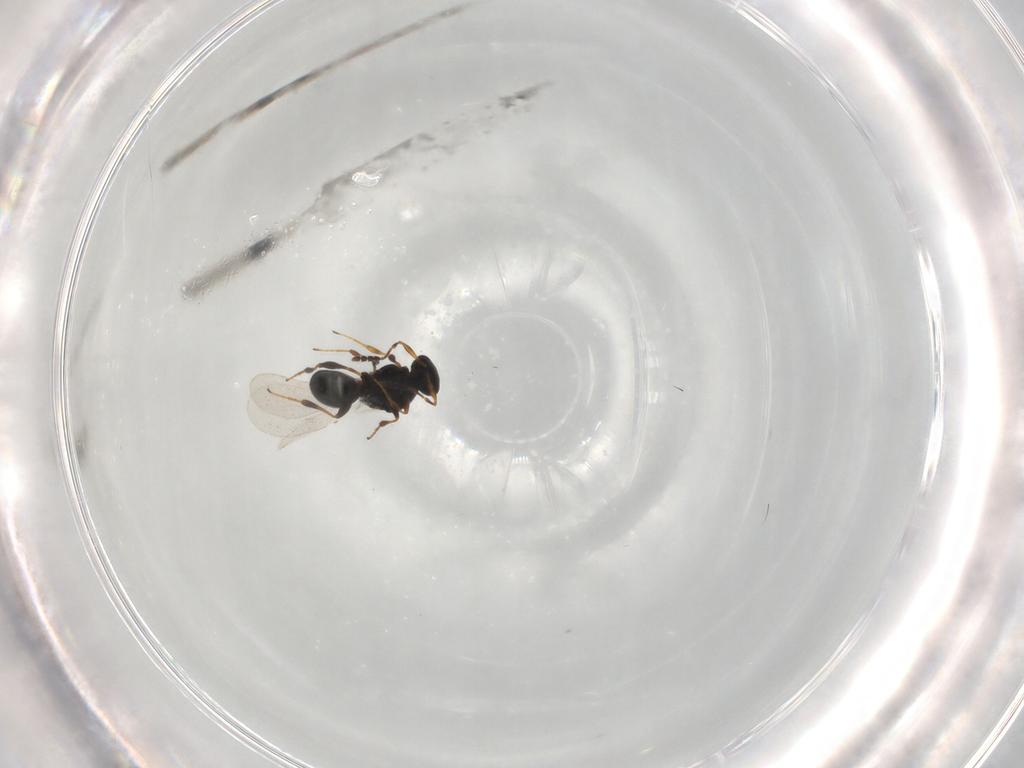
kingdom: Animalia
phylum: Arthropoda
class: Insecta
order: Hymenoptera
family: Platygastridae
